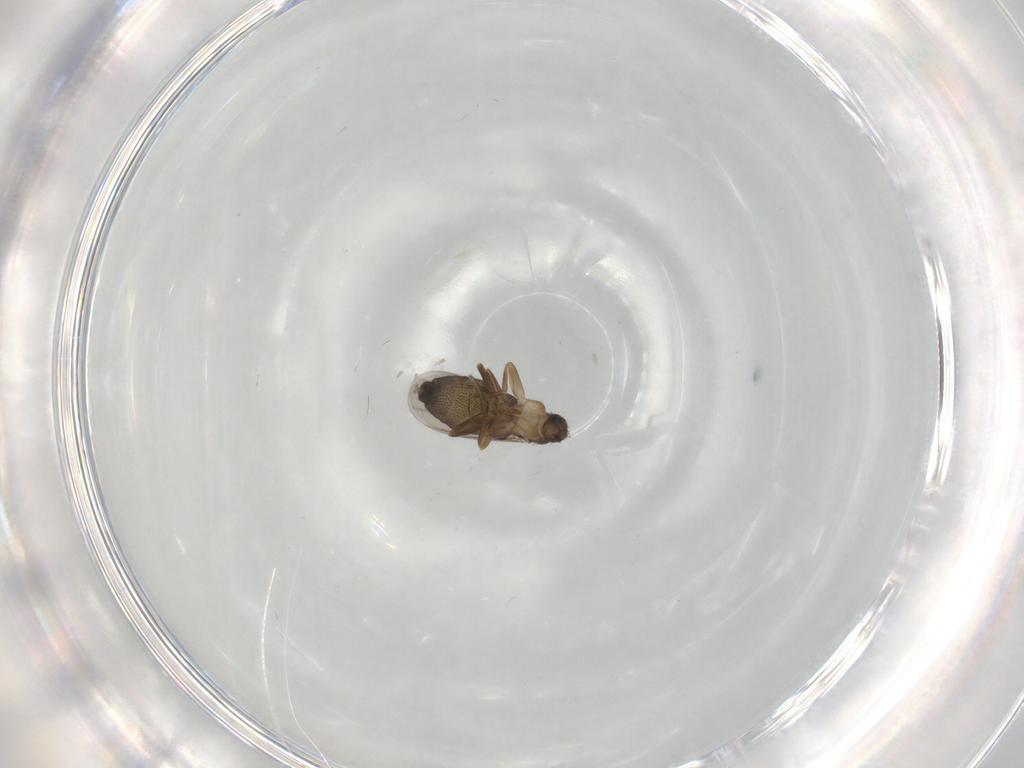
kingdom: Animalia
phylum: Arthropoda
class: Insecta
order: Diptera
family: Phoridae
